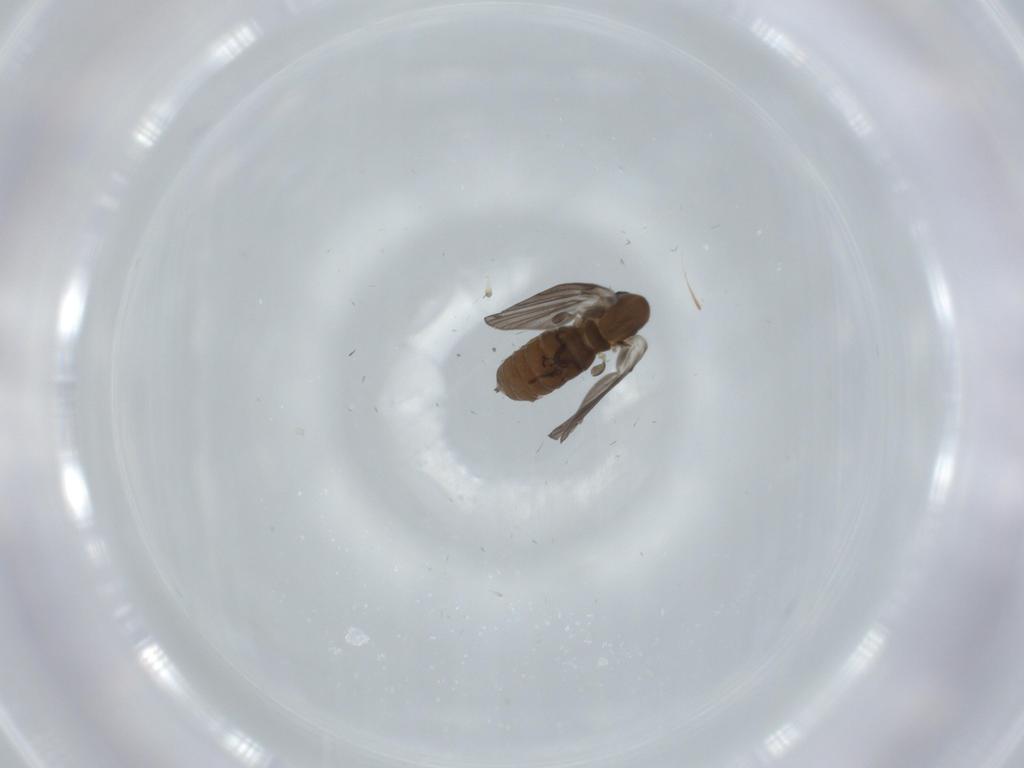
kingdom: Animalia
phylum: Arthropoda
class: Insecta
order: Diptera
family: Psychodidae
